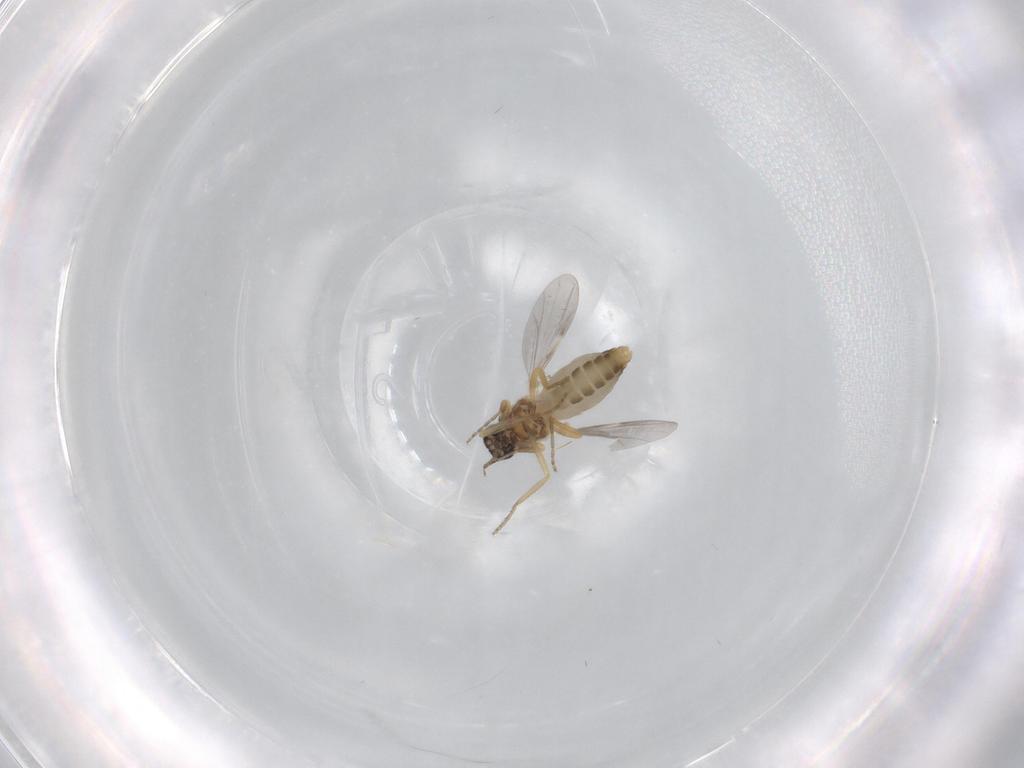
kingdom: Animalia
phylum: Arthropoda
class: Insecta
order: Diptera
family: Ceratopogonidae
